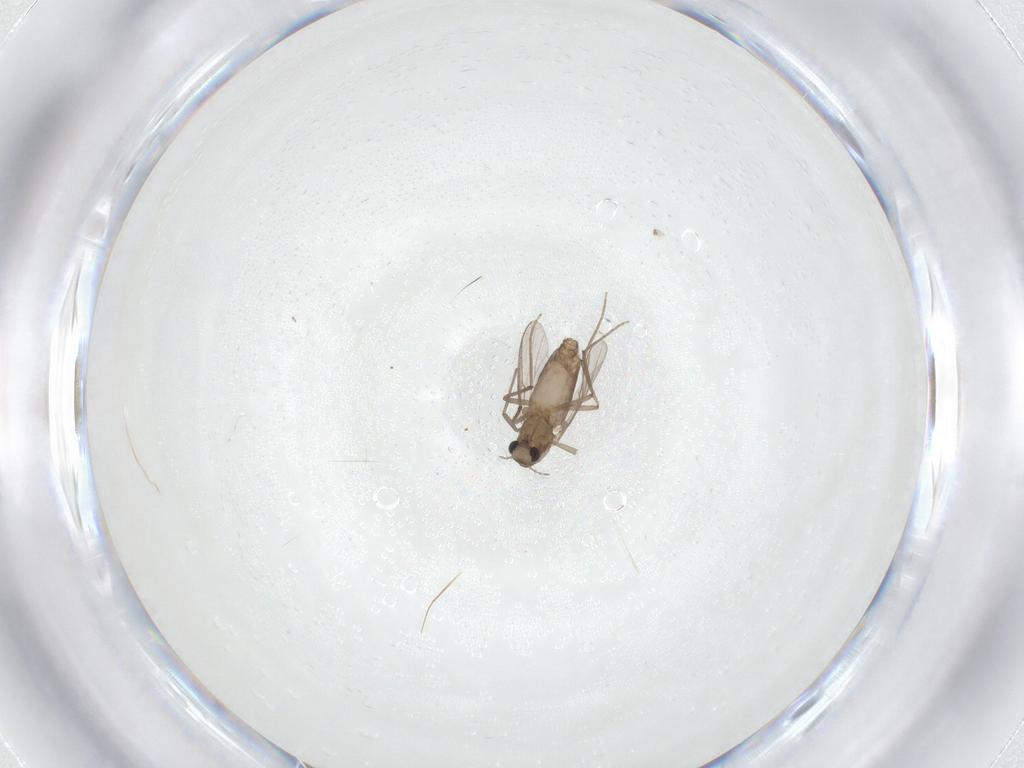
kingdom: Animalia
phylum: Arthropoda
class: Insecta
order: Diptera
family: Chironomidae
